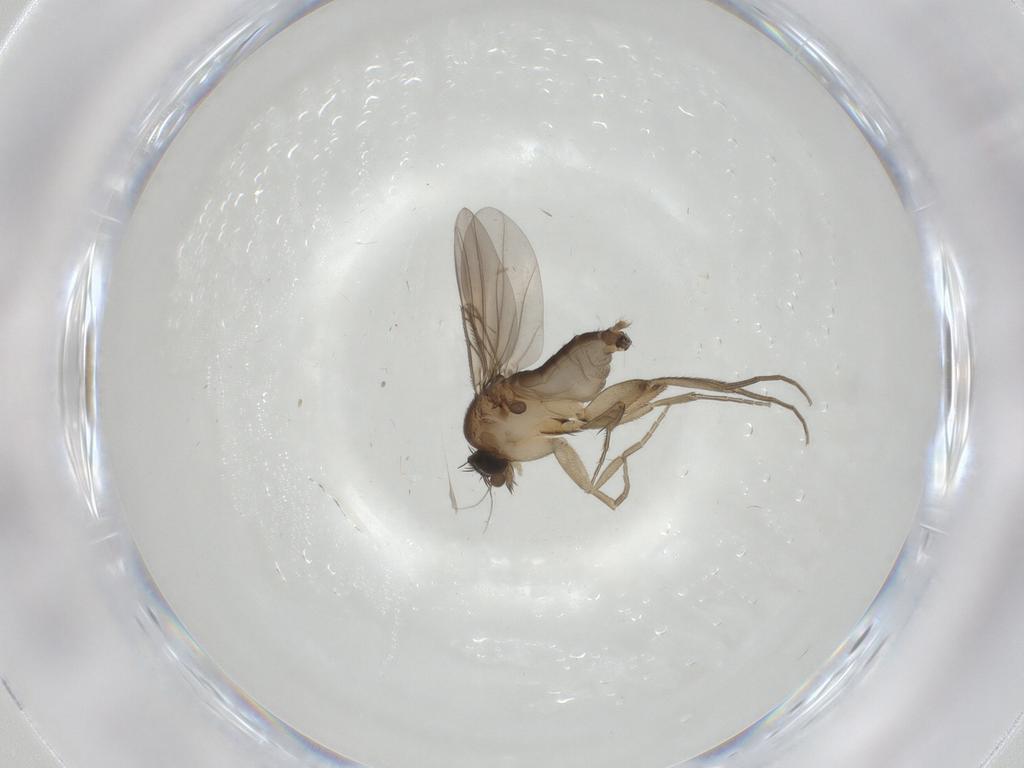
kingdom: Animalia
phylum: Arthropoda
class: Insecta
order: Diptera
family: Phoridae
